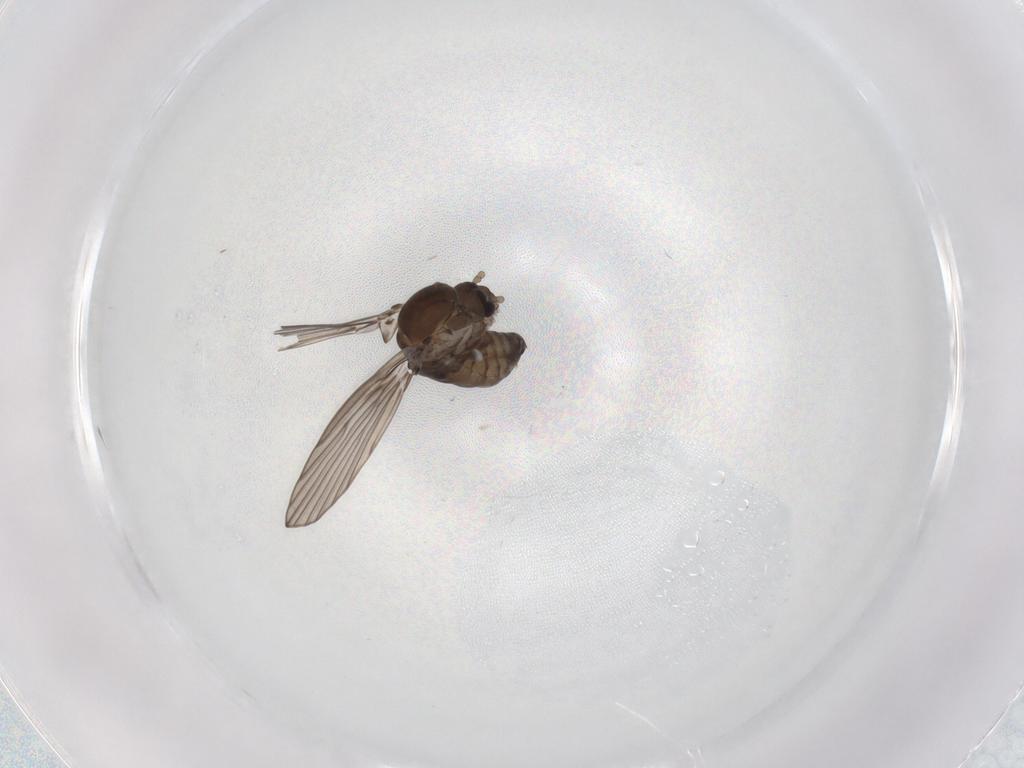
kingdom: Animalia
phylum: Arthropoda
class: Insecta
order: Diptera
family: Psychodidae
